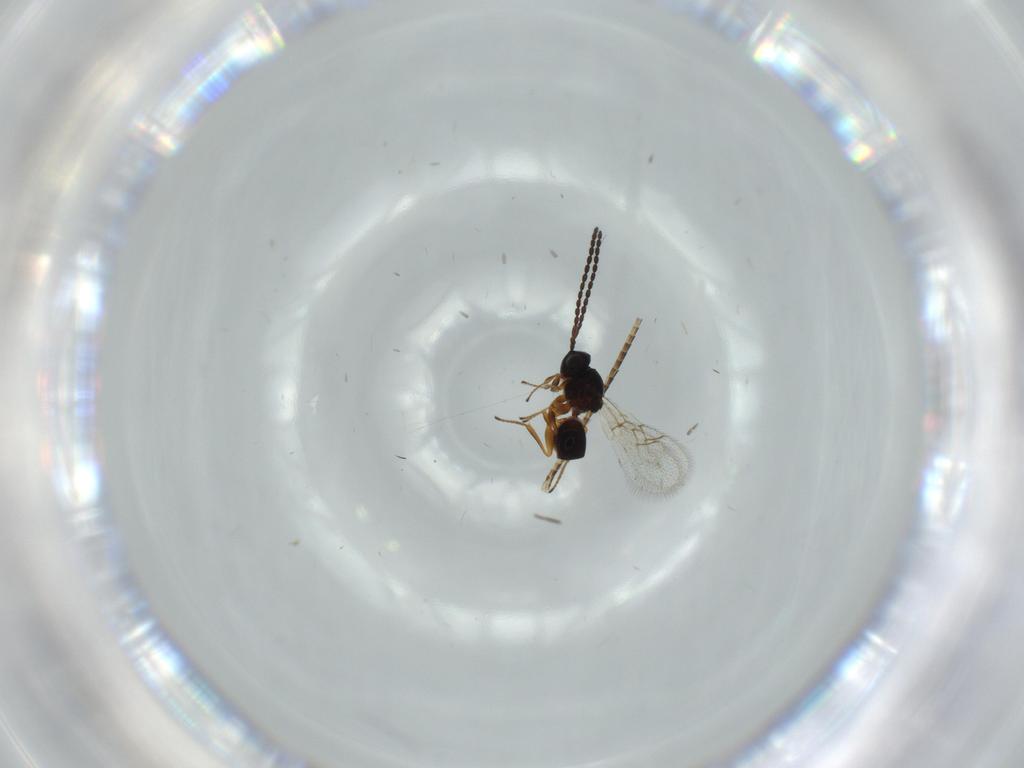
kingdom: Animalia
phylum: Arthropoda
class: Insecta
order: Hymenoptera
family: Figitidae
